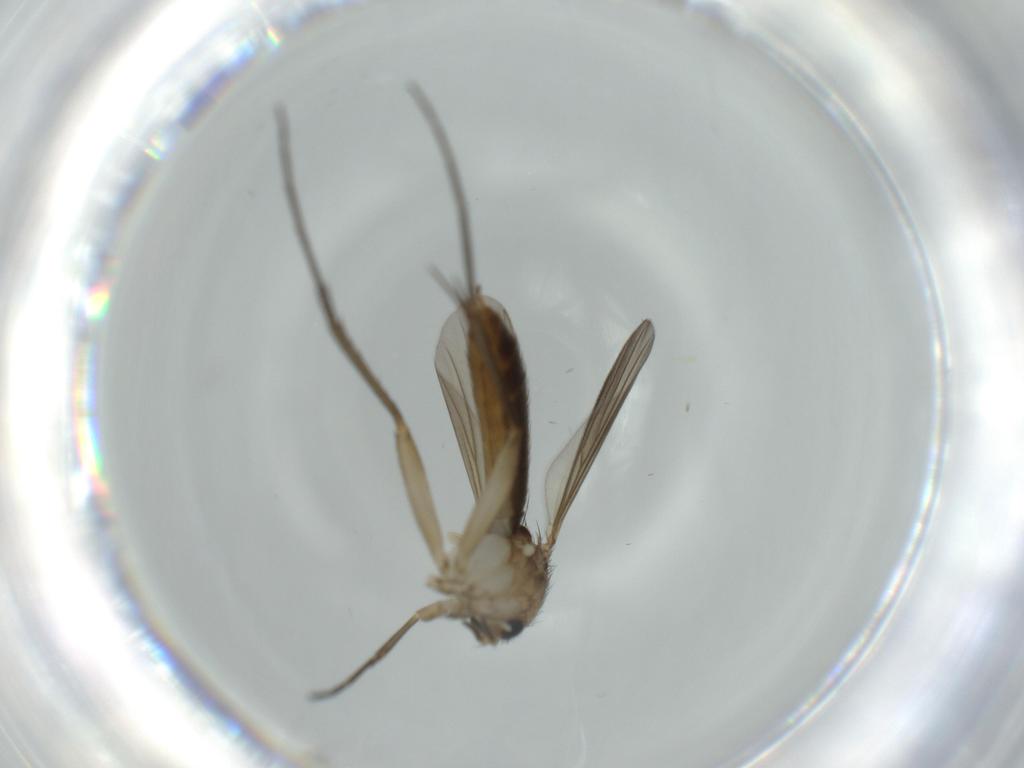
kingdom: Animalia
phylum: Arthropoda
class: Insecta
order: Diptera
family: Mycetophilidae
